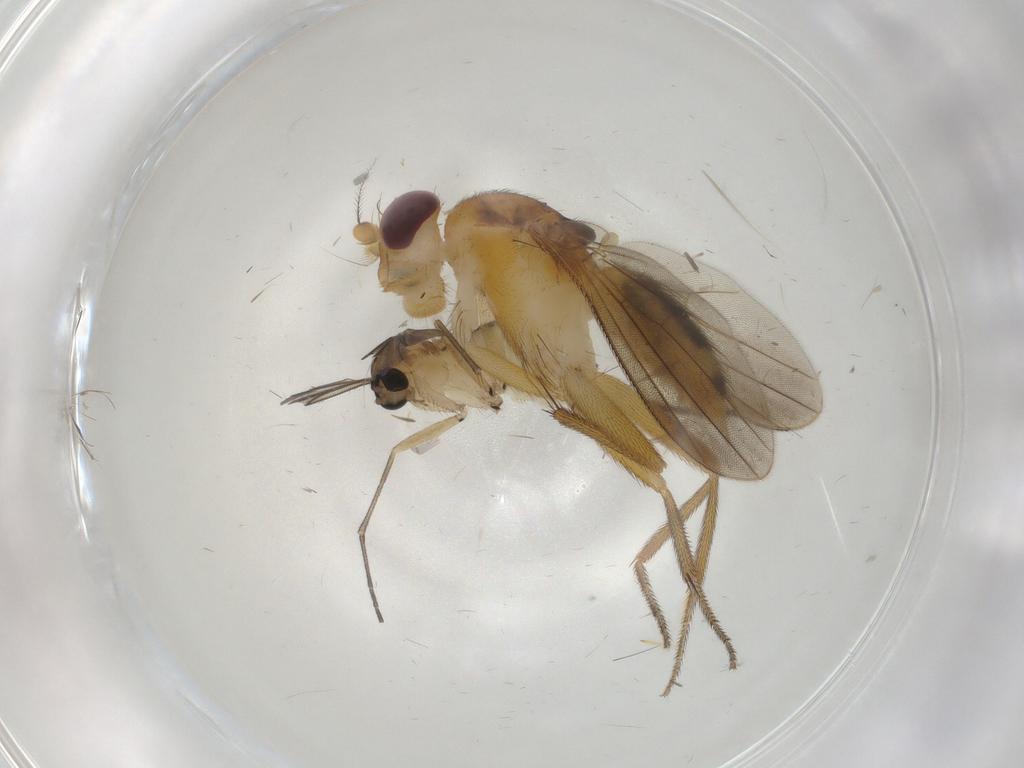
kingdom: Animalia
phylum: Arthropoda
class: Insecta
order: Diptera
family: Sciaridae
